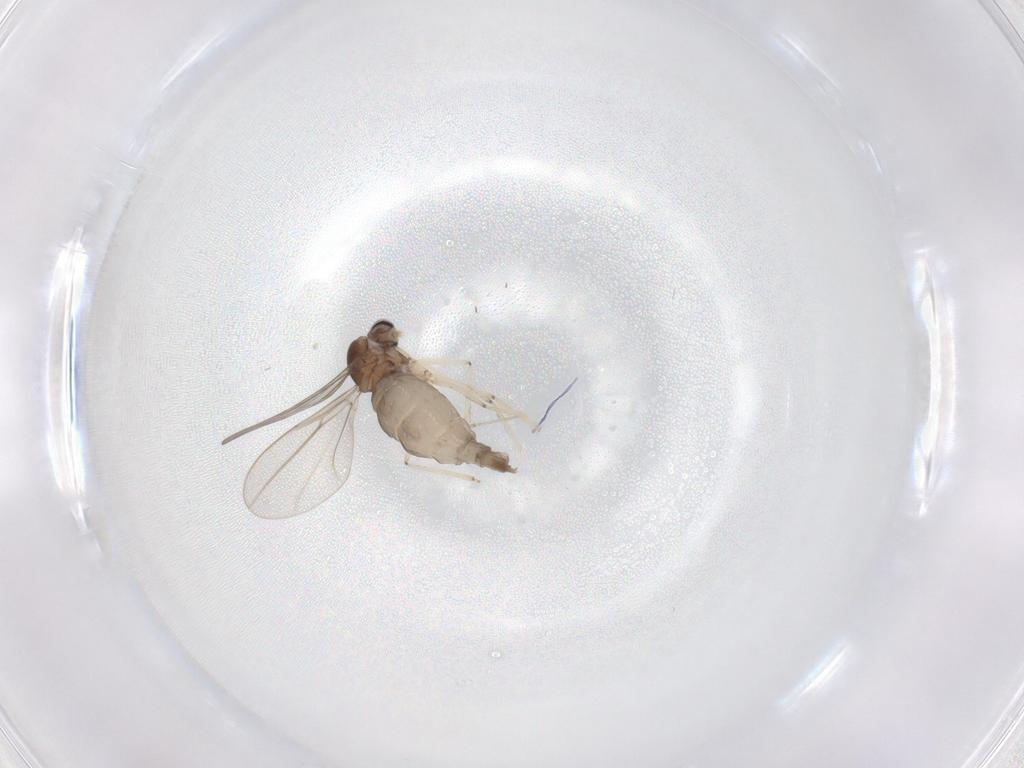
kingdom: Animalia
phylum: Arthropoda
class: Insecta
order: Diptera
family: Cecidomyiidae
